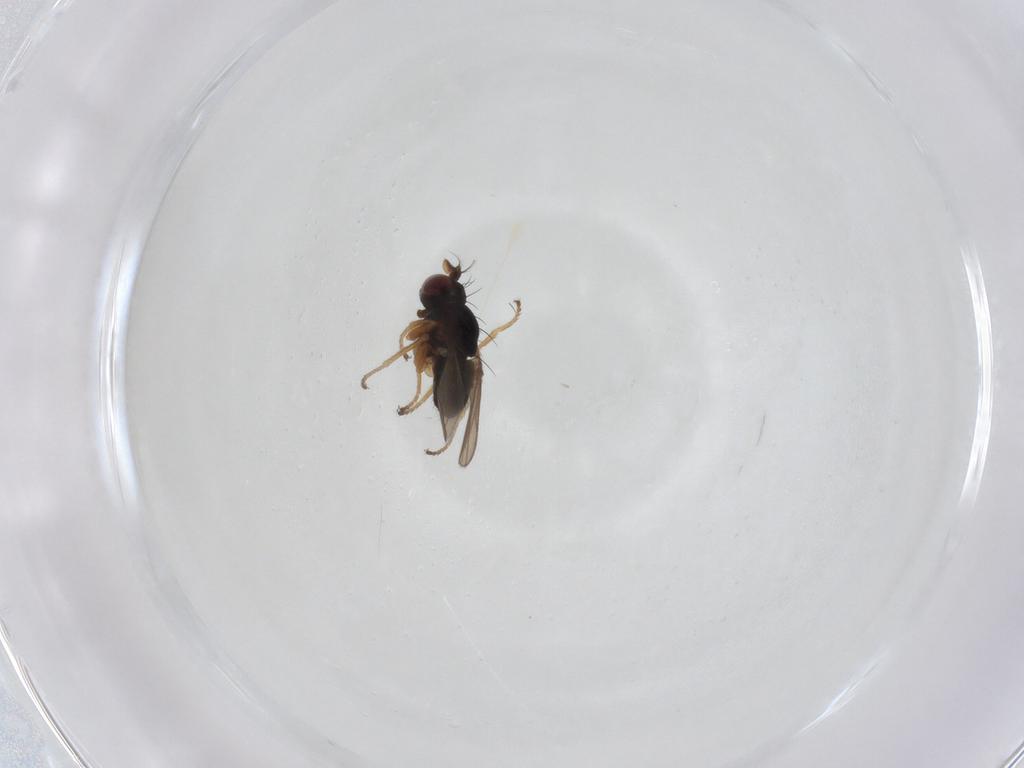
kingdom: Animalia
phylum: Arthropoda
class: Insecta
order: Diptera
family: Ephydridae
